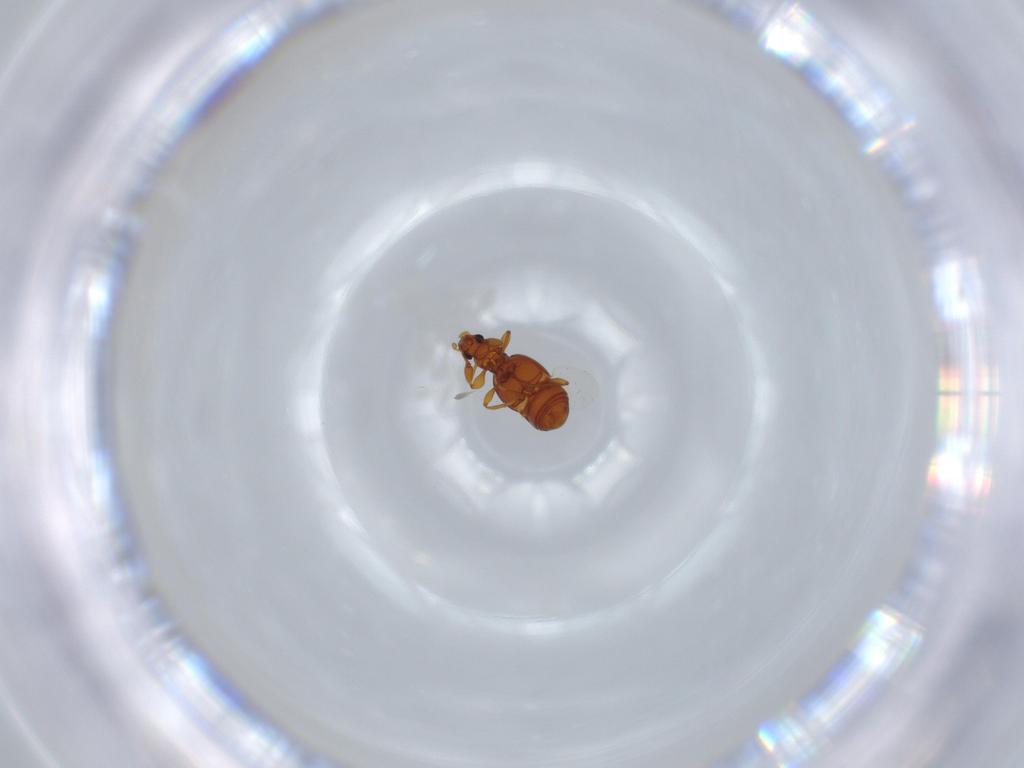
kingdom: Animalia
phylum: Arthropoda
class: Insecta
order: Coleoptera
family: Staphylinidae
